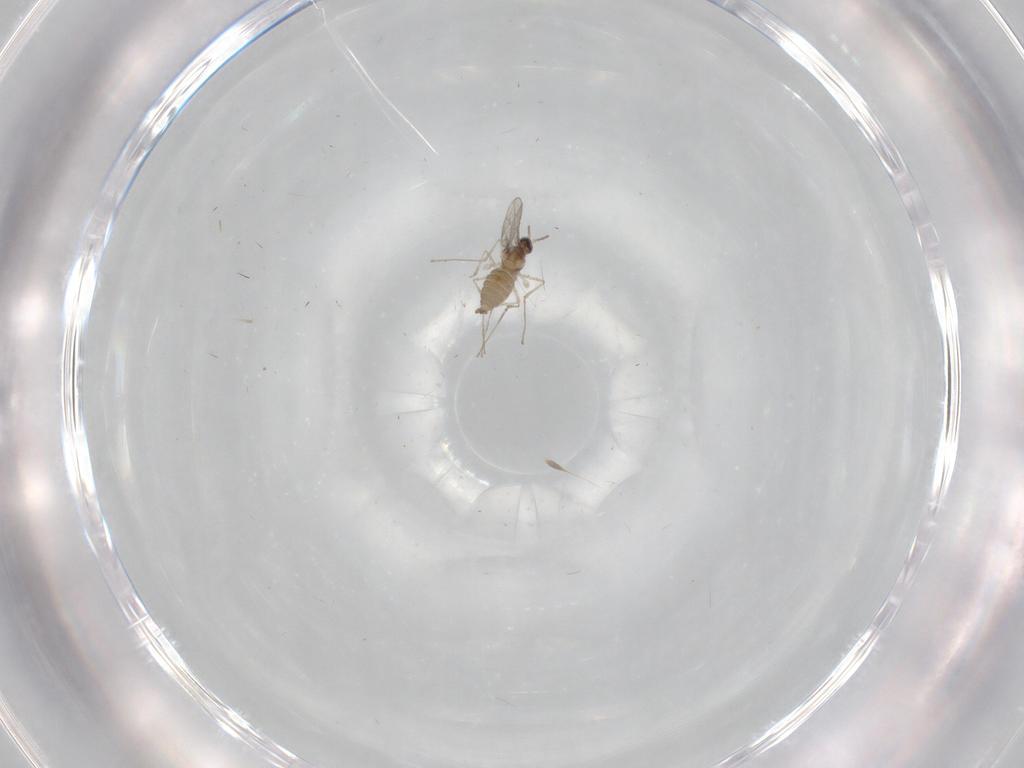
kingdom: Animalia
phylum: Arthropoda
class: Insecta
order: Diptera
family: Cecidomyiidae
